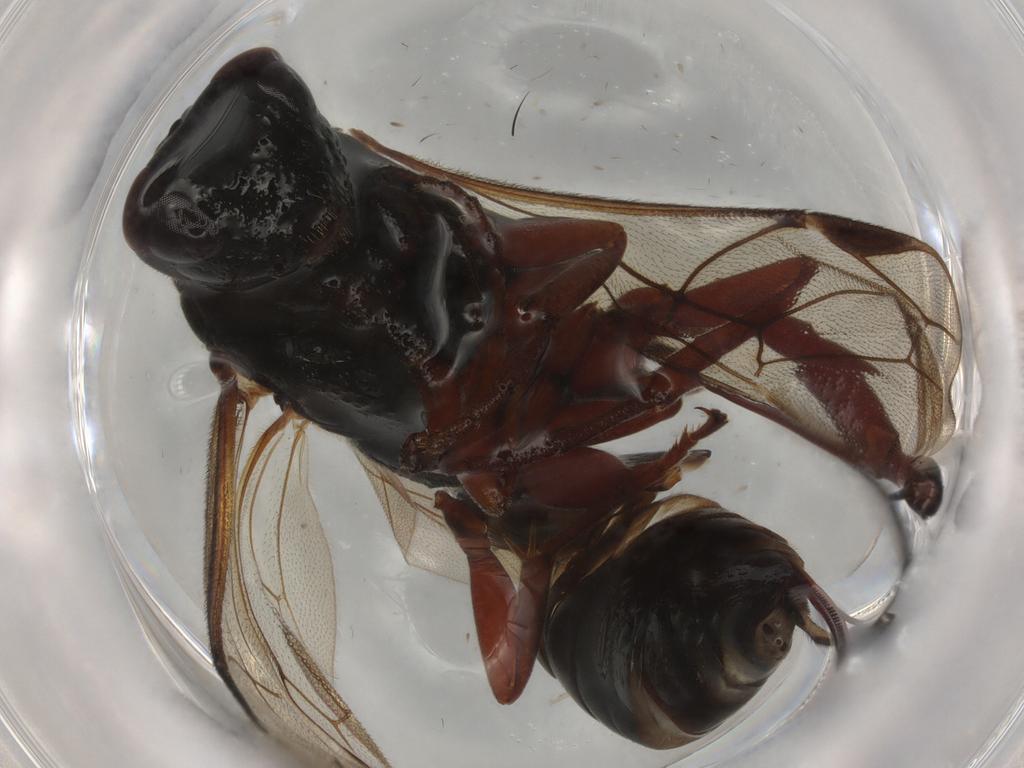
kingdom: Animalia
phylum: Arthropoda
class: Insecta
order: Hymenoptera
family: Ichneumonidae
